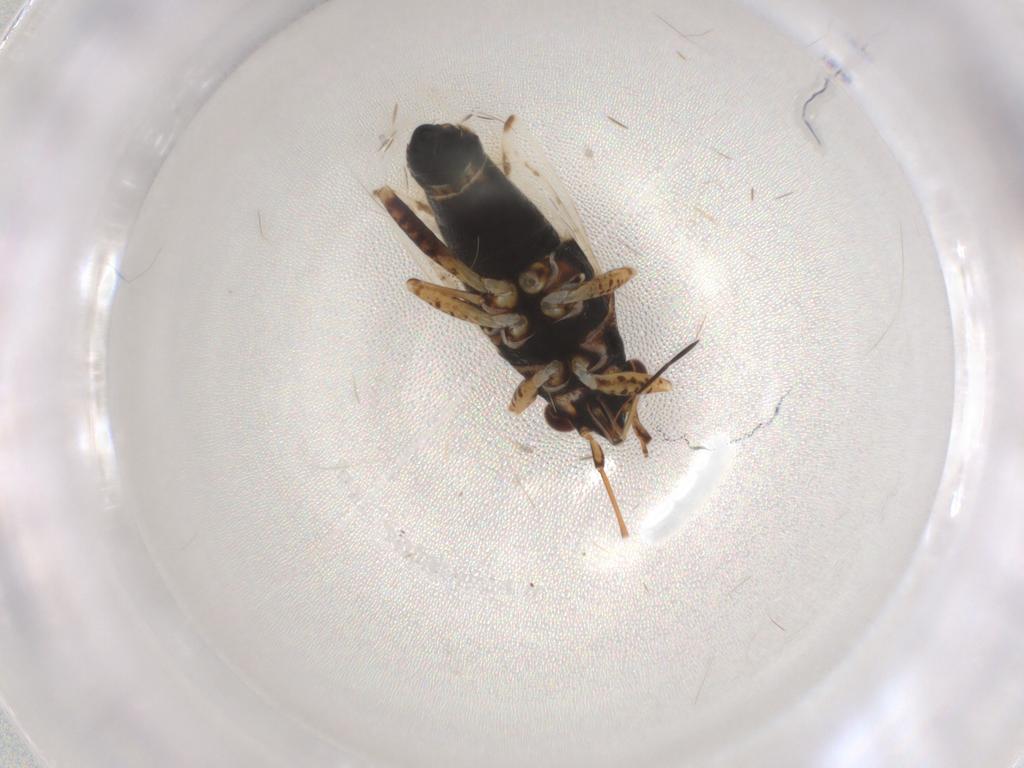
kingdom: Animalia
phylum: Arthropoda
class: Insecta
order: Hemiptera
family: Miridae
